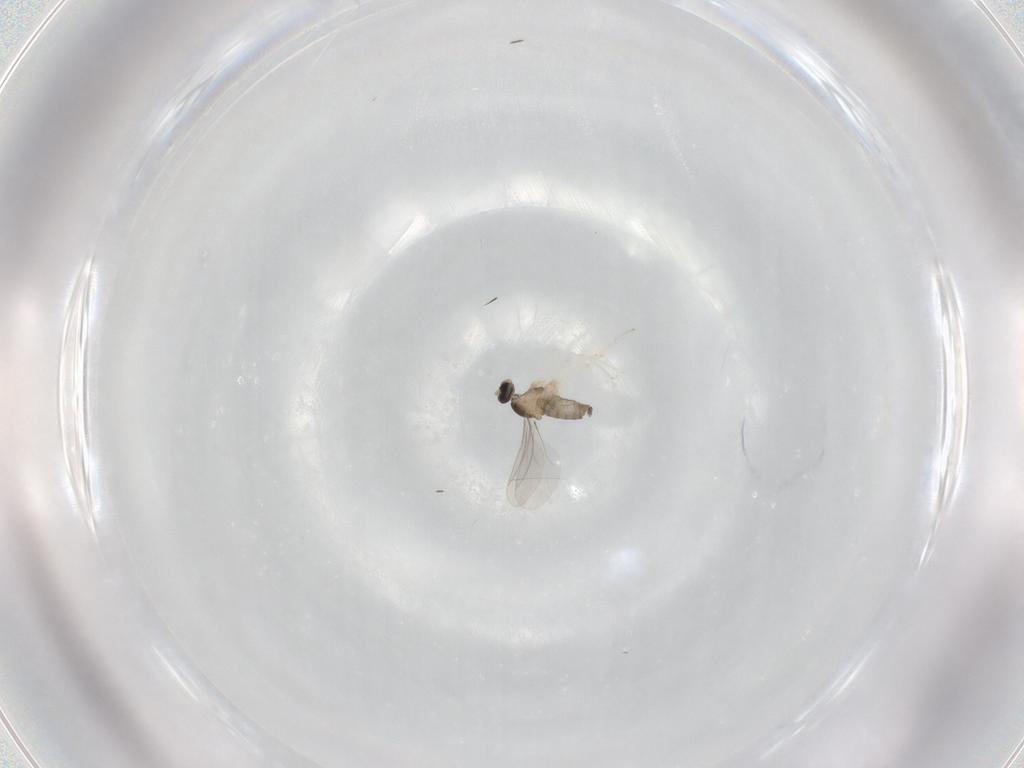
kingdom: Animalia
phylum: Arthropoda
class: Insecta
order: Diptera
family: Cecidomyiidae
